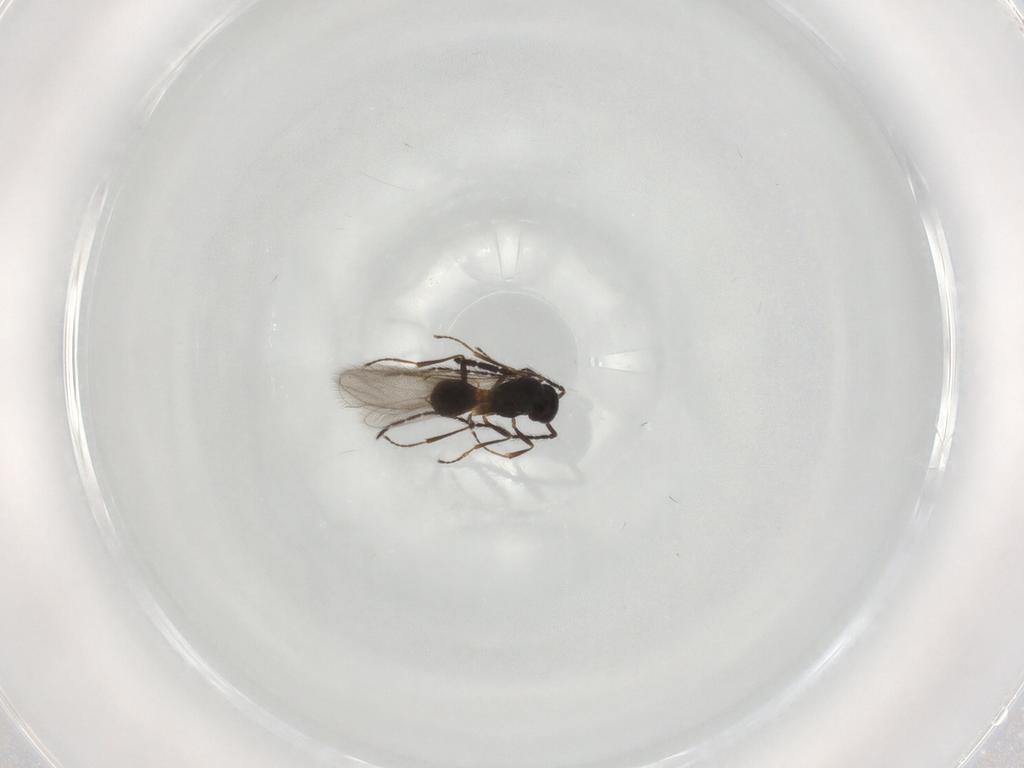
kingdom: Animalia
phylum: Arthropoda
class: Insecta
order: Hymenoptera
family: Scelionidae
